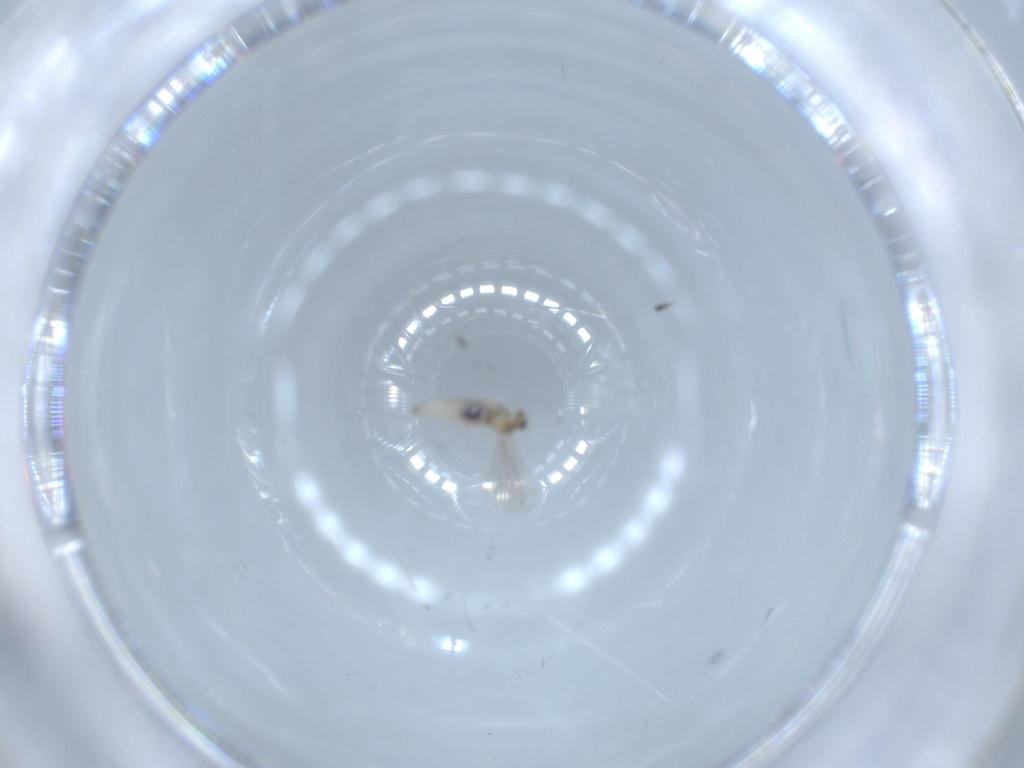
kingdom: Animalia
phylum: Arthropoda
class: Insecta
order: Diptera
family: Cecidomyiidae
